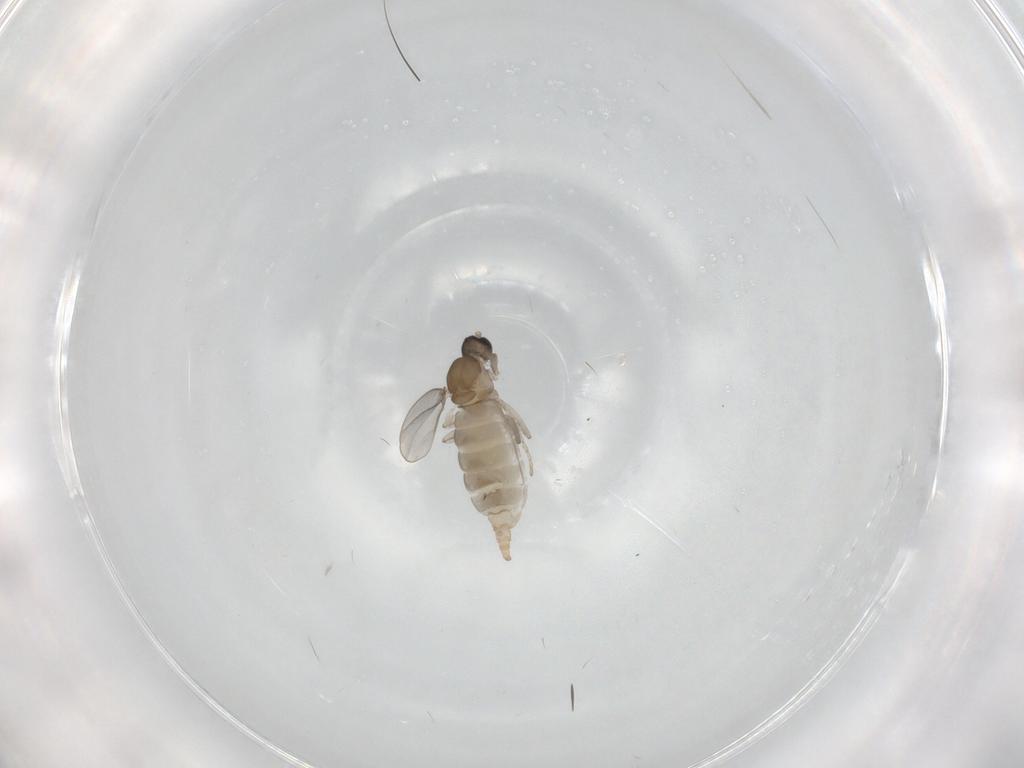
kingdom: Animalia
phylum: Arthropoda
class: Insecta
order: Diptera
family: Cecidomyiidae
